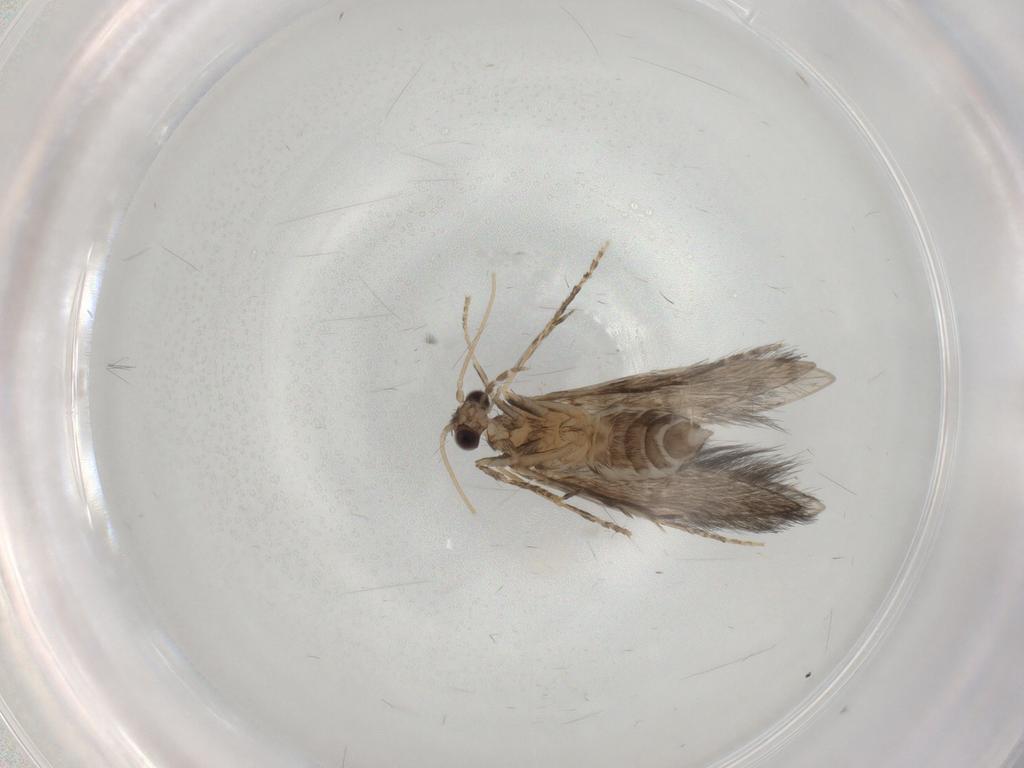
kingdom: Animalia
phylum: Arthropoda
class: Insecta
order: Trichoptera
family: Hydroptilidae
